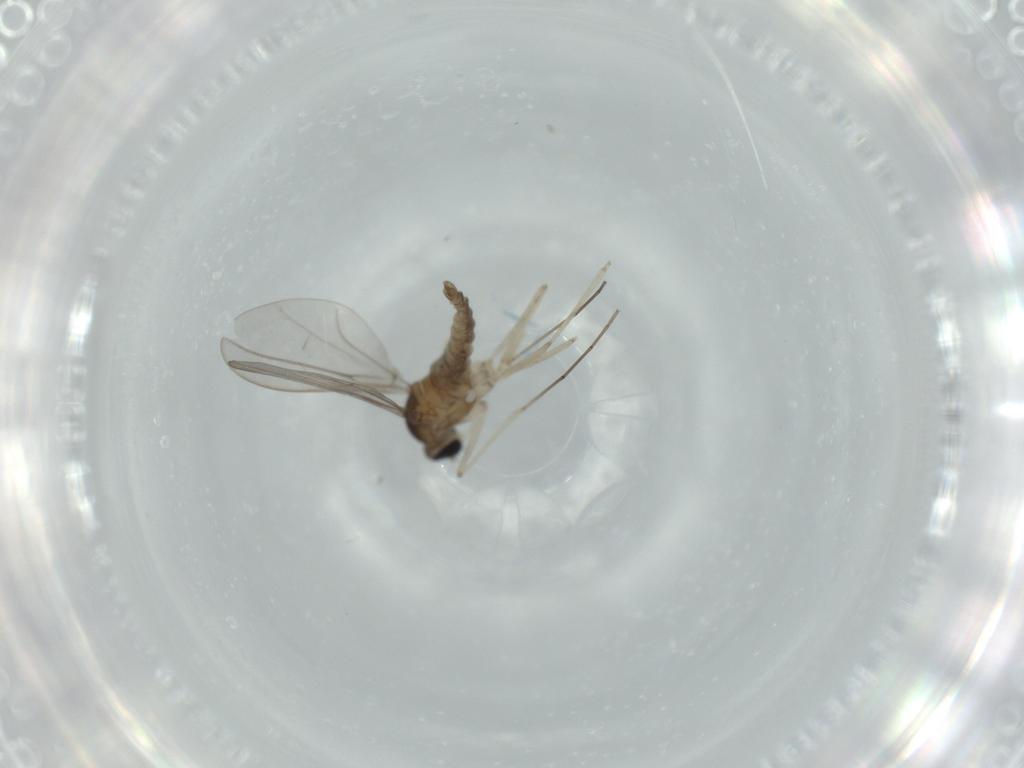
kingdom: Animalia
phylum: Arthropoda
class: Insecta
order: Diptera
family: Cecidomyiidae
